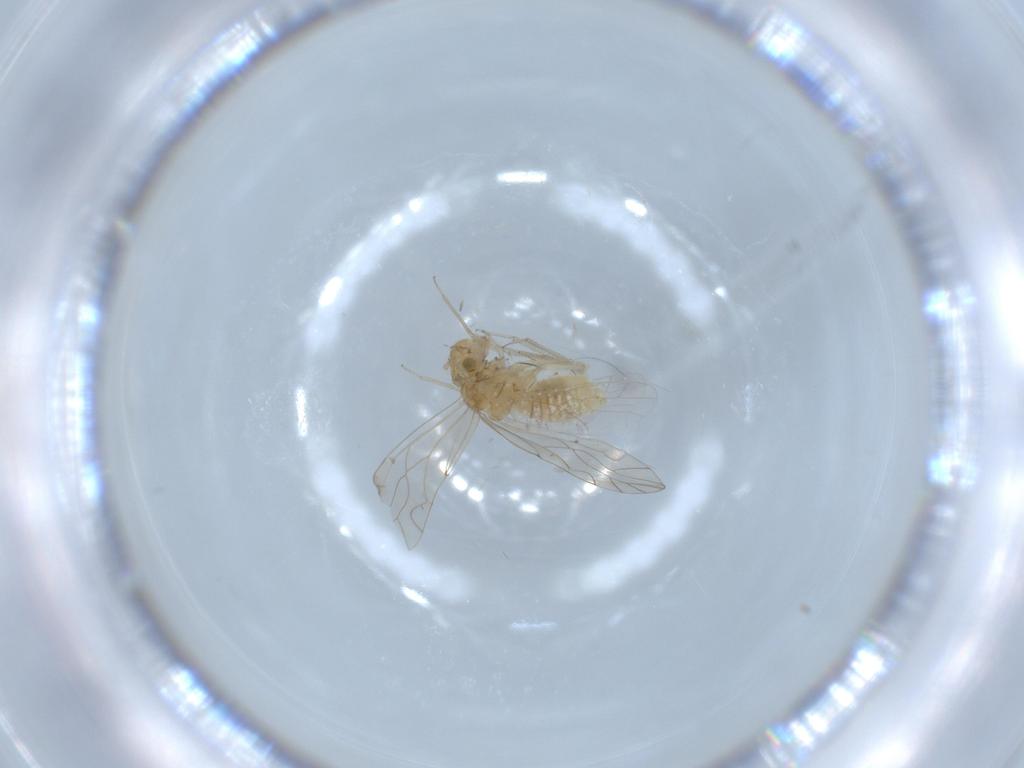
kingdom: Animalia
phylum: Arthropoda
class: Insecta
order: Psocodea
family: Lachesillidae
